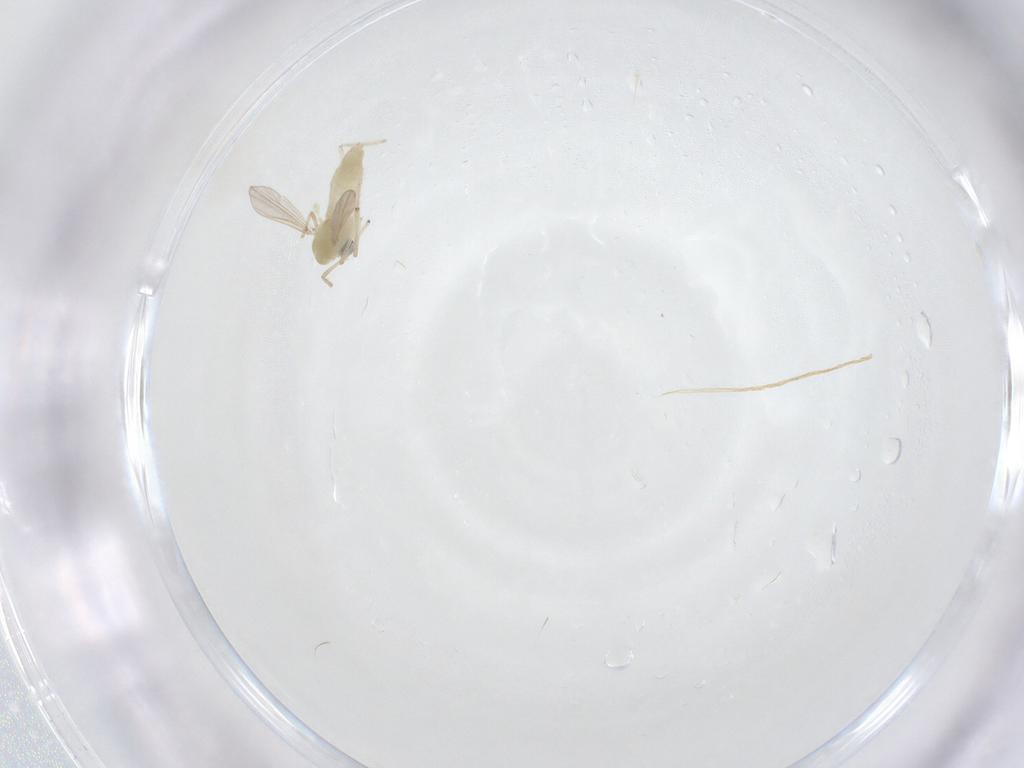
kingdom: Animalia
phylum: Arthropoda
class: Insecta
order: Diptera
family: Chironomidae
